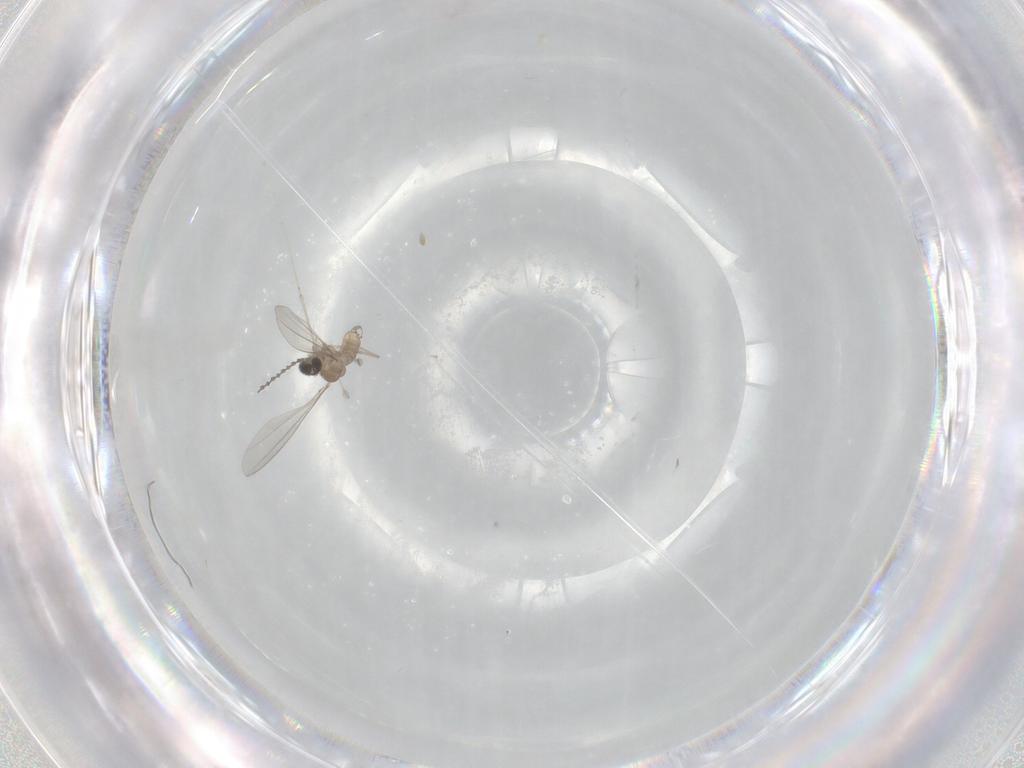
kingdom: Animalia
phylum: Arthropoda
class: Insecta
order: Diptera
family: Cecidomyiidae
